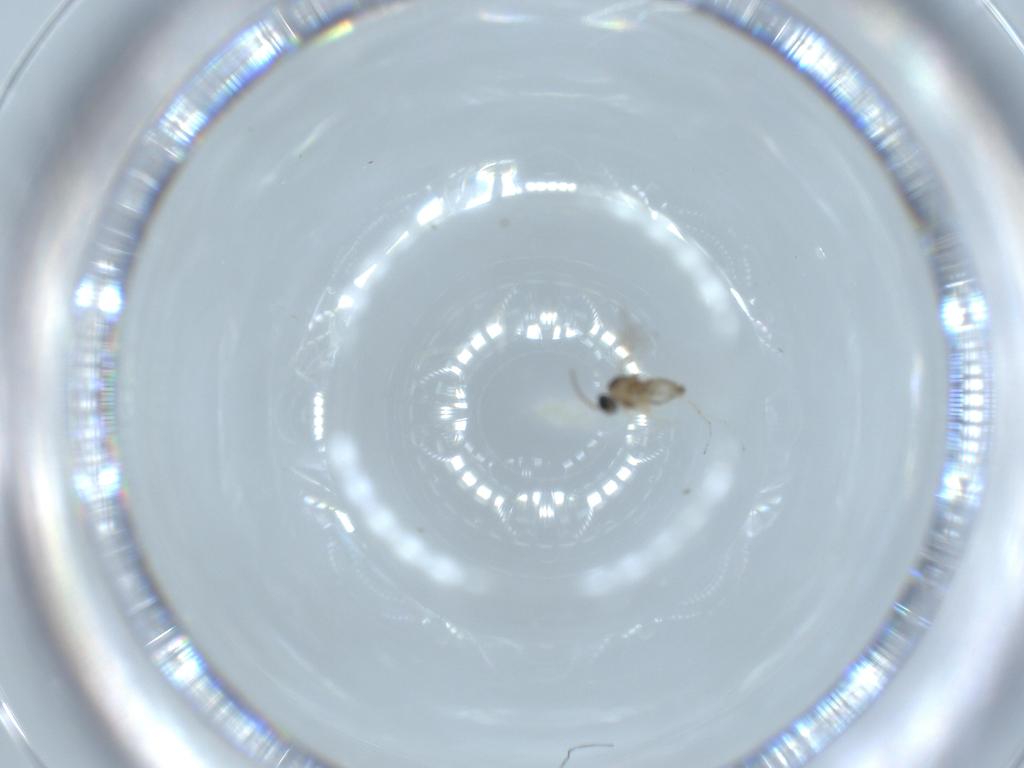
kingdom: Animalia
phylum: Arthropoda
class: Insecta
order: Diptera
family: Cecidomyiidae
